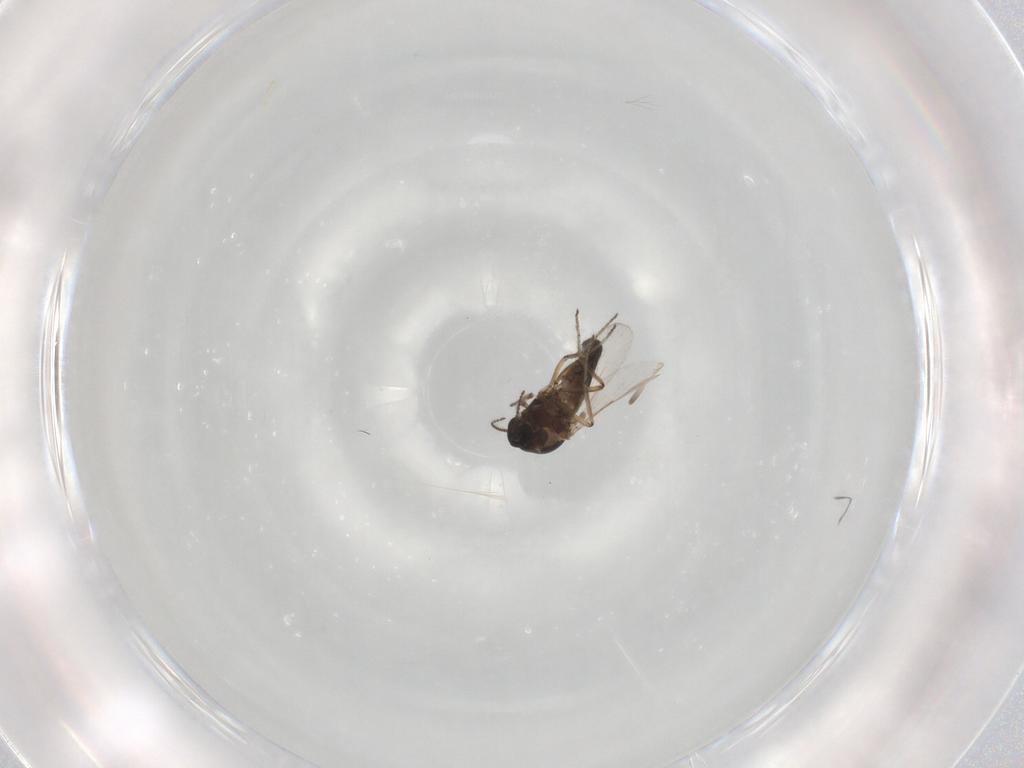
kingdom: Animalia
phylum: Arthropoda
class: Insecta
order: Diptera
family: Ceratopogonidae
